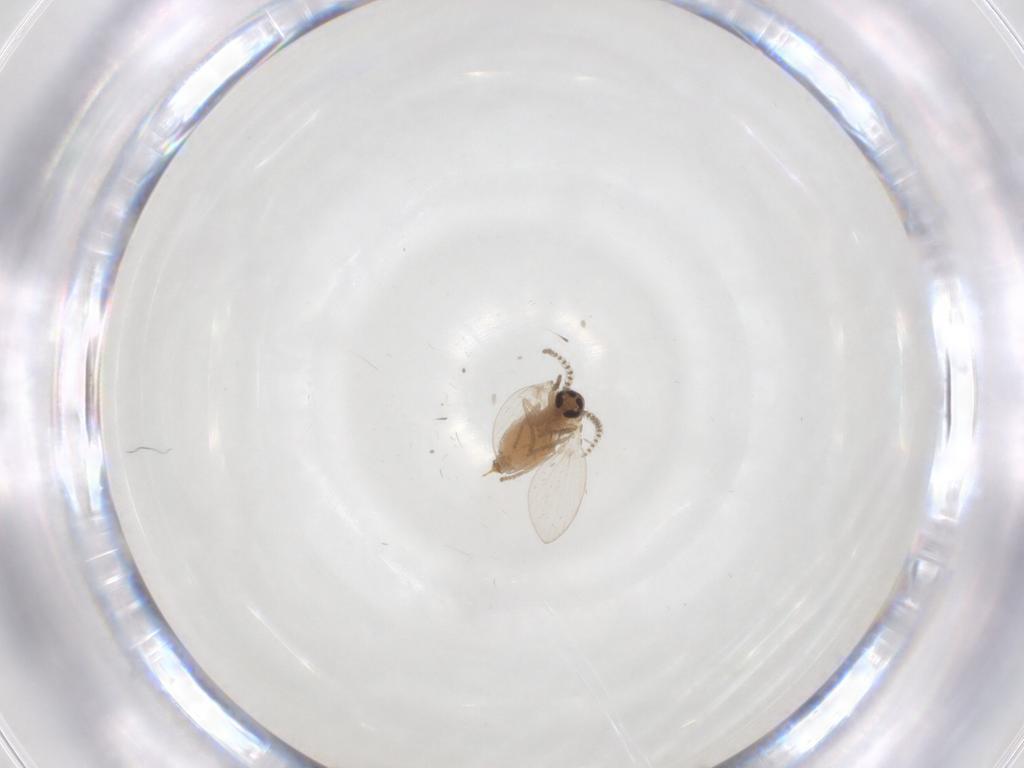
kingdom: Animalia
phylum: Arthropoda
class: Insecta
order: Diptera
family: Psychodidae
